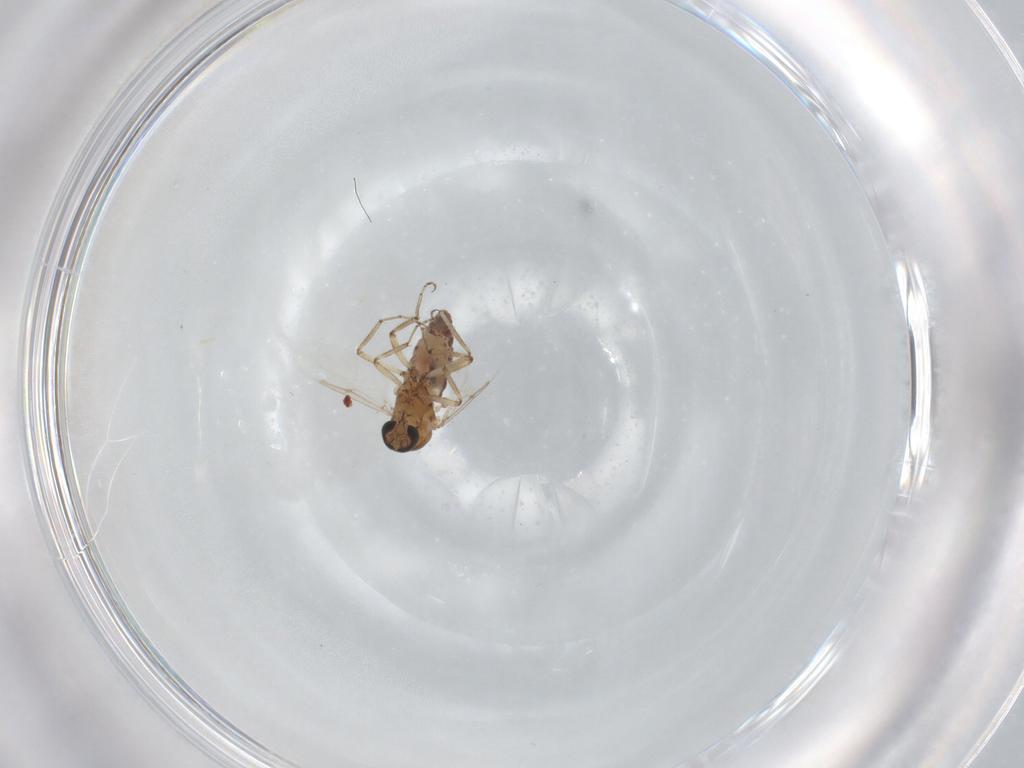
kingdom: Animalia
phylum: Arthropoda
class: Insecta
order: Diptera
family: Ceratopogonidae
